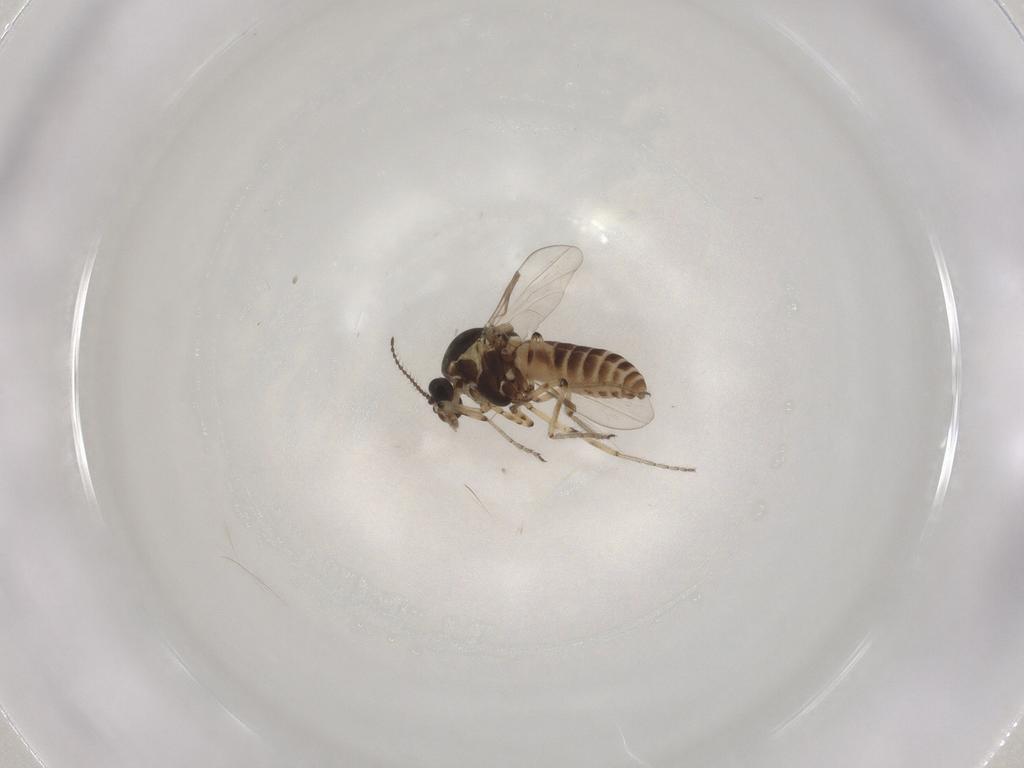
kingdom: Animalia
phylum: Arthropoda
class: Insecta
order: Diptera
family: Ceratopogonidae
